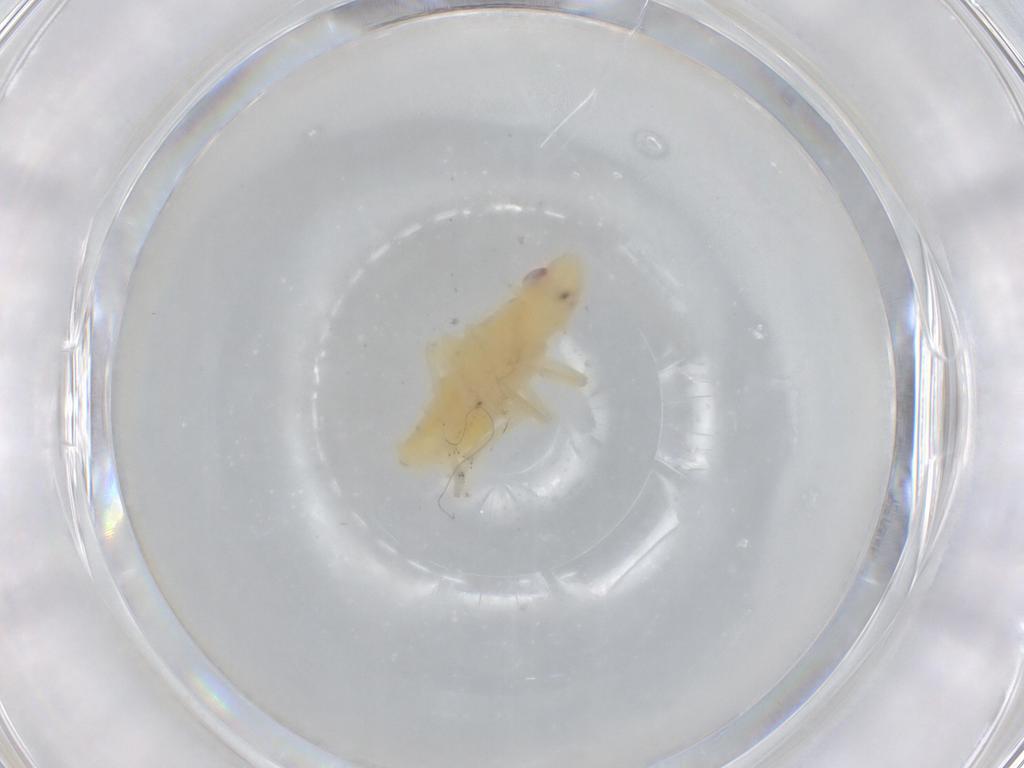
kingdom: Animalia
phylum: Arthropoda
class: Insecta
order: Hemiptera
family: Tropiduchidae
